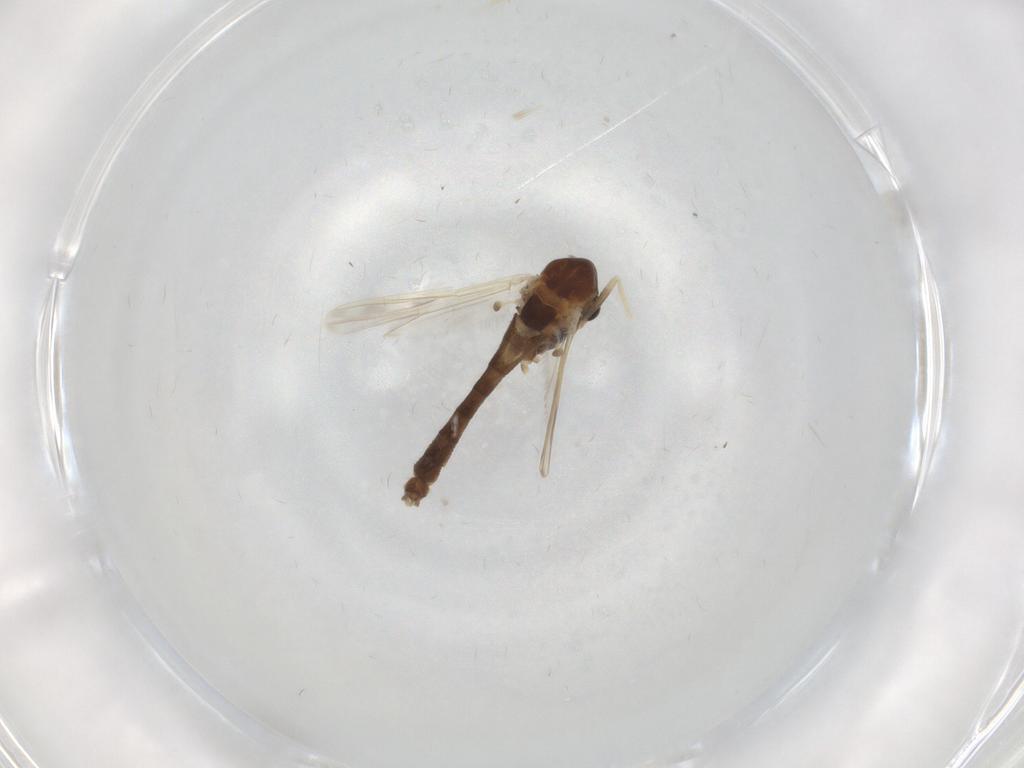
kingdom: Animalia
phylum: Arthropoda
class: Insecta
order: Diptera
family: Chironomidae
